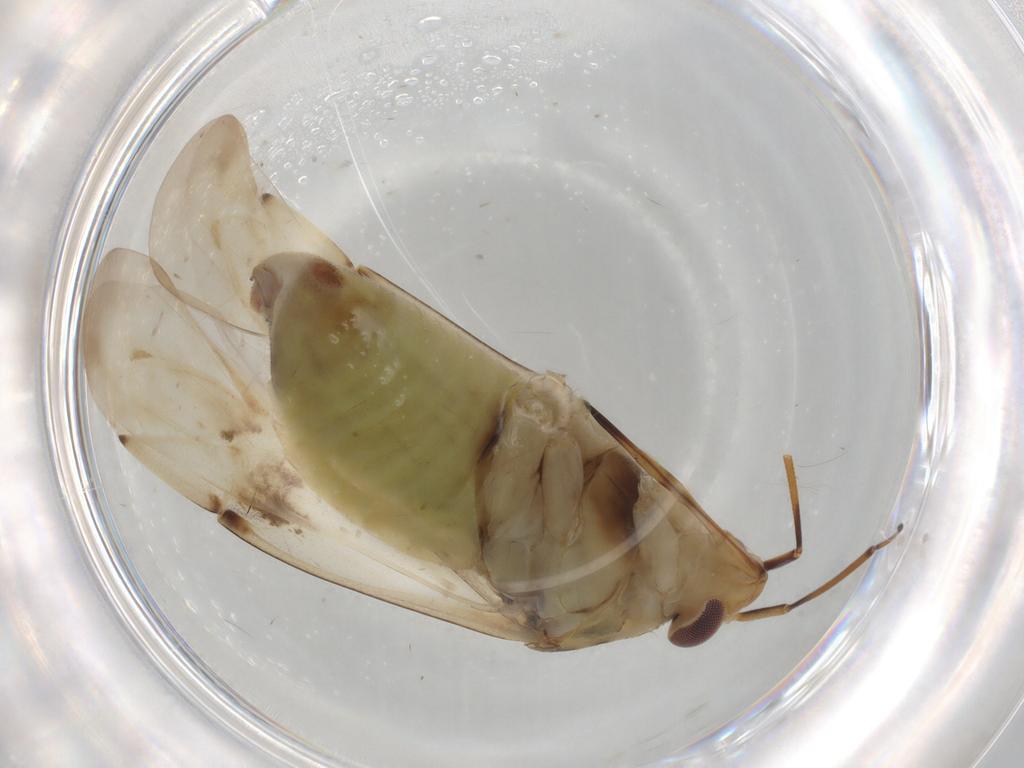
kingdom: Animalia
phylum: Arthropoda
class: Insecta
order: Hemiptera
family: Miridae
